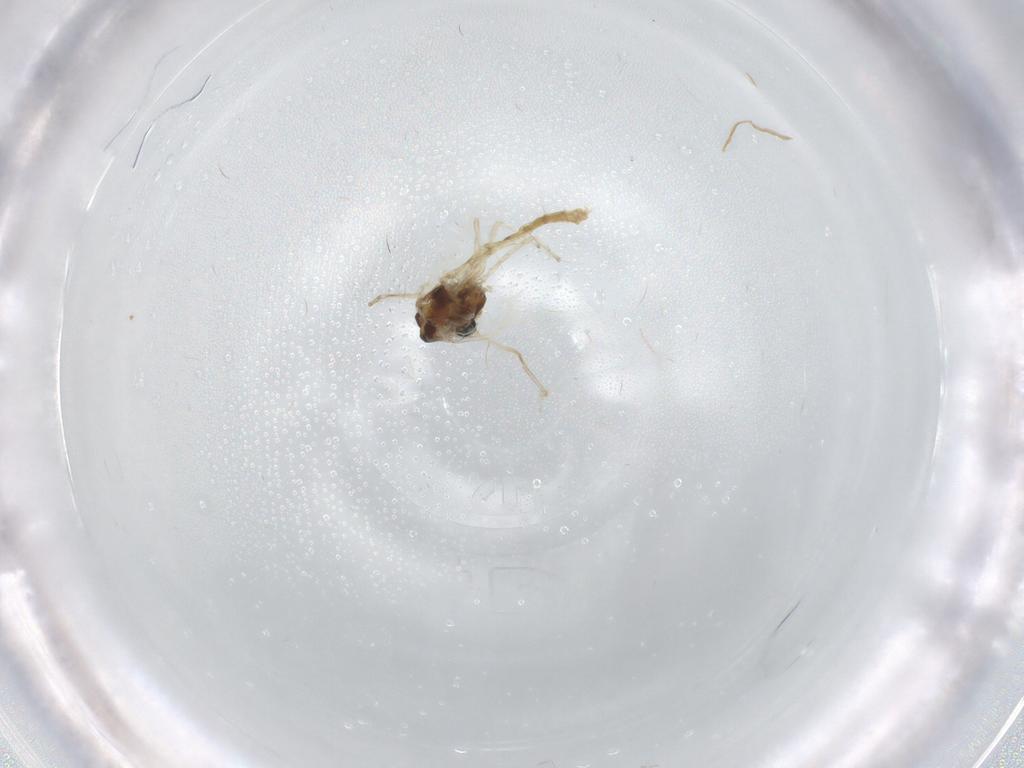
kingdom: Animalia
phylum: Arthropoda
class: Insecta
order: Diptera
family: Chironomidae
